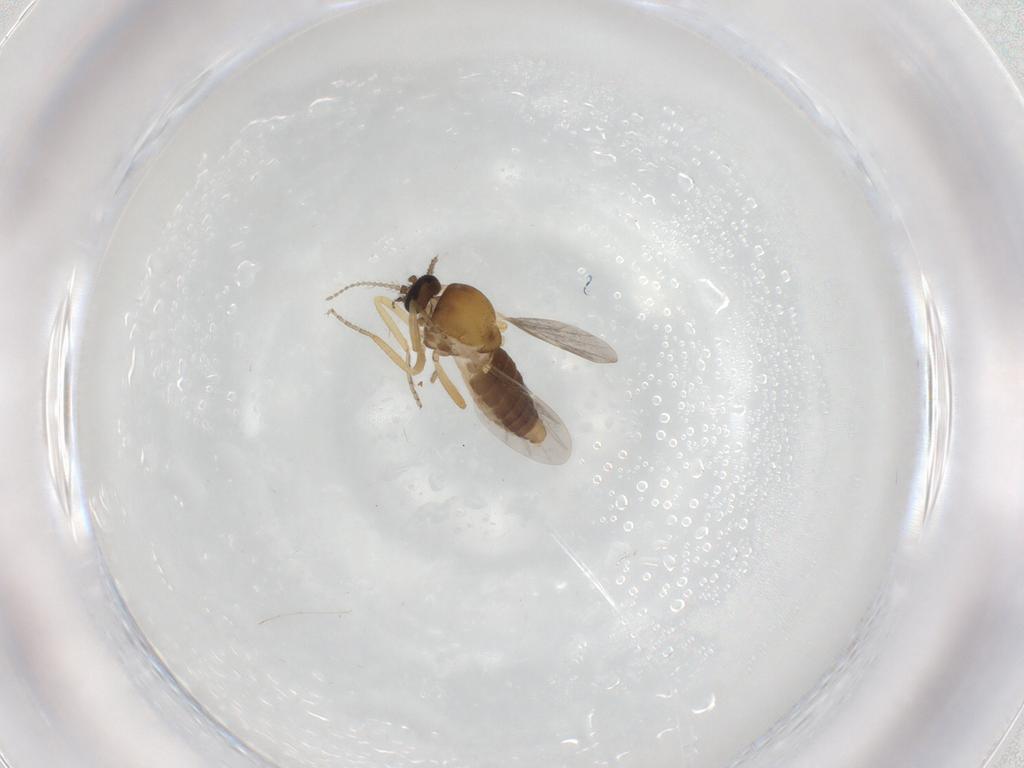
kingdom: Animalia
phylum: Arthropoda
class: Insecta
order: Diptera
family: Ceratopogonidae
